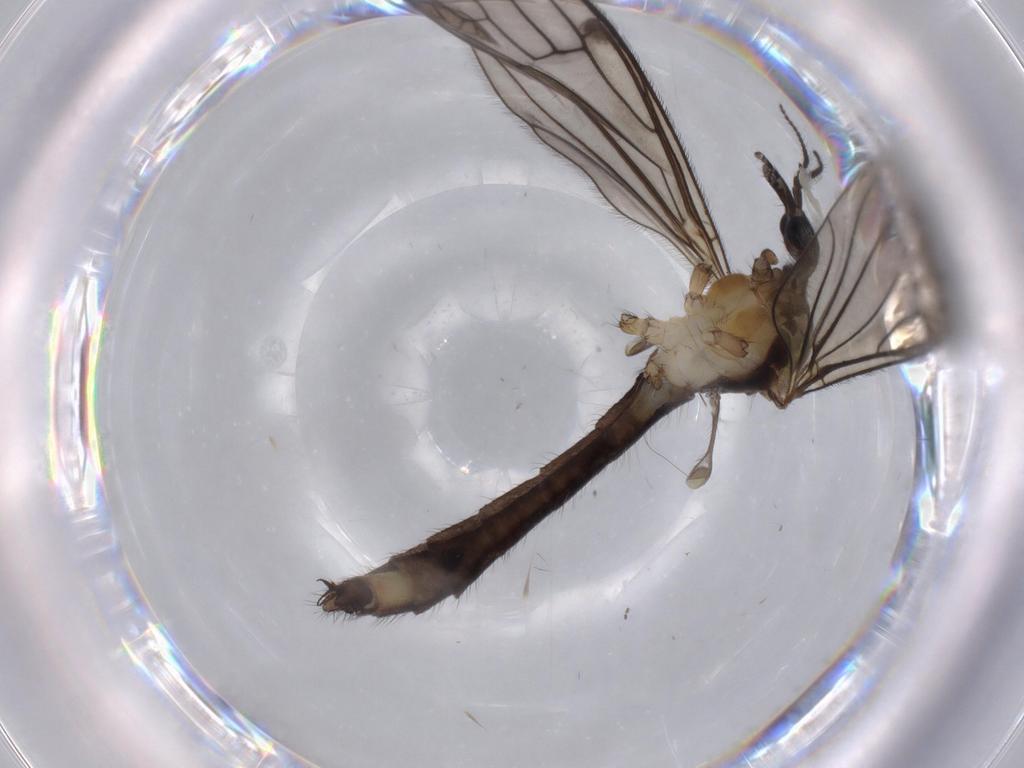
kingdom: Animalia
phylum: Arthropoda
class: Insecta
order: Diptera
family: Limoniidae
